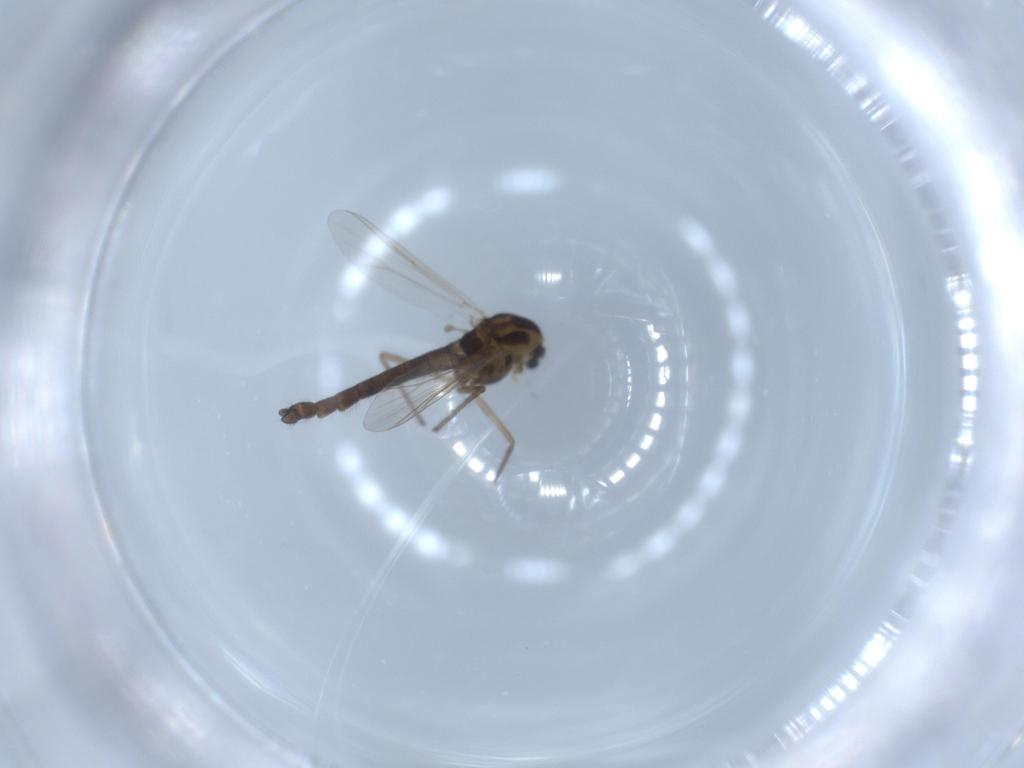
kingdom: Animalia
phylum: Arthropoda
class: Insecta
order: Diptera
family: Chironomidae
